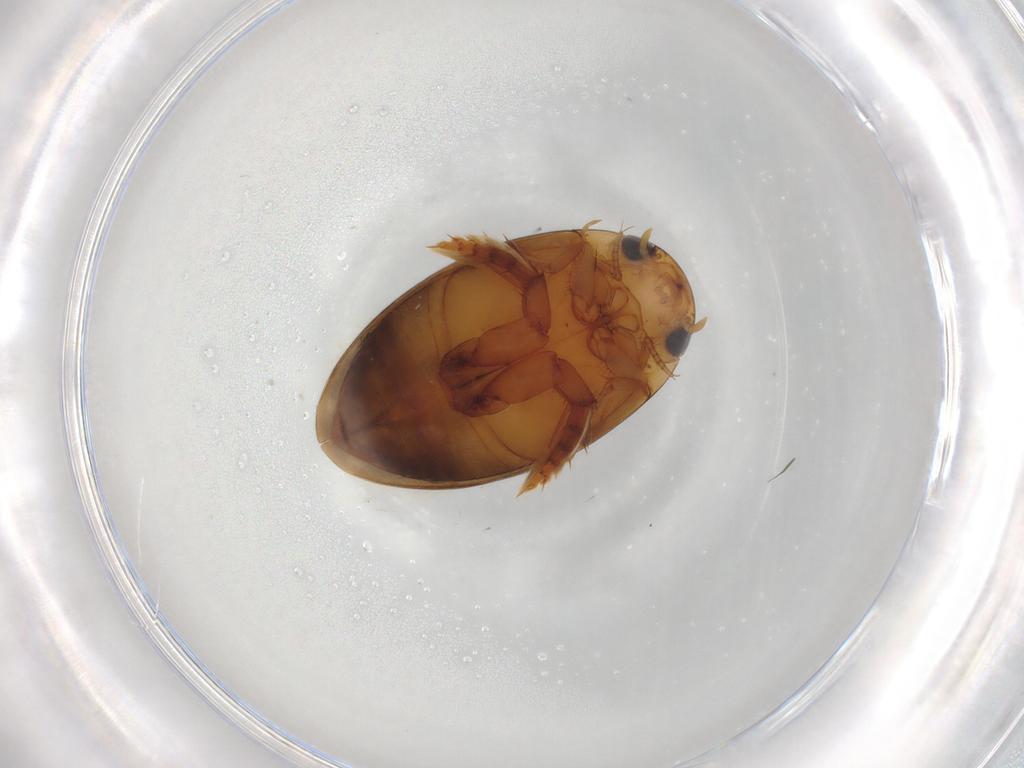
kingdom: Animalia
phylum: Arthropoda
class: Insecta
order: Coleoptera
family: Dytiscidae
